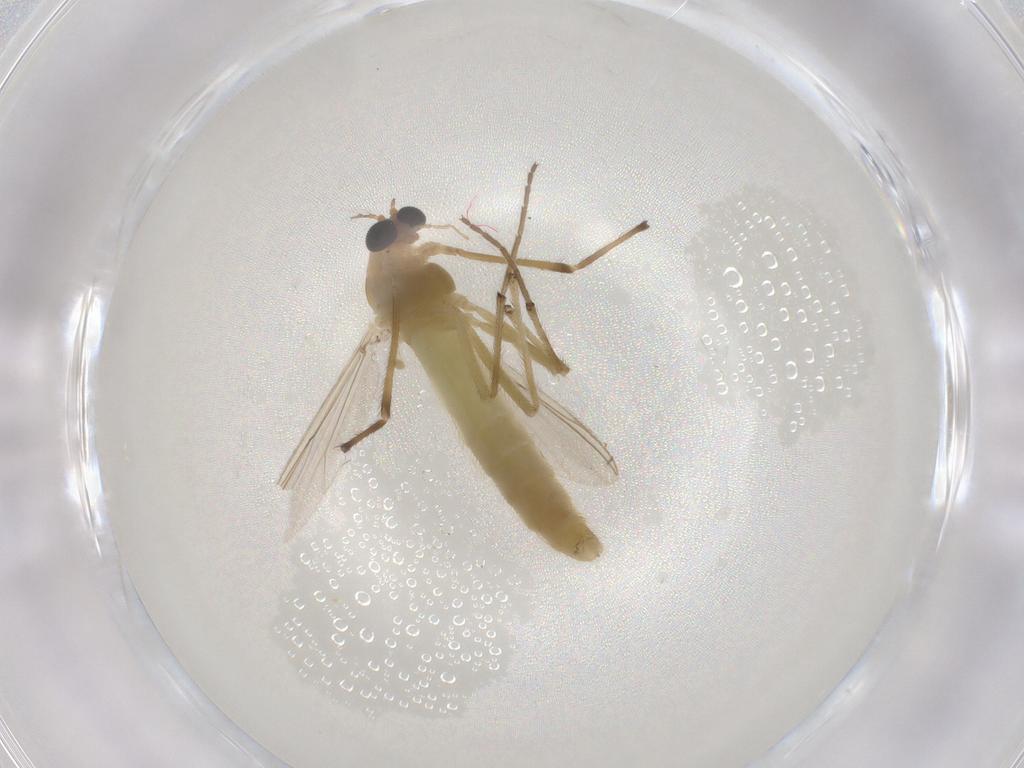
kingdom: Animalia
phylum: Arthropoda
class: Insecta
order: Diptera
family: Chironomidae
